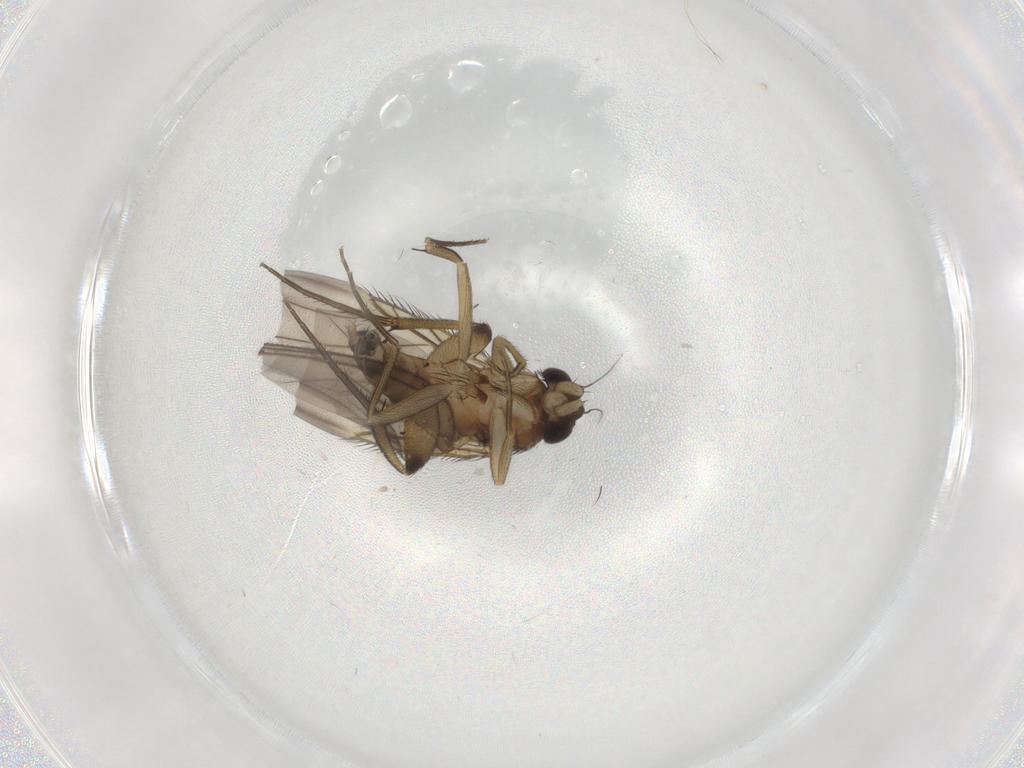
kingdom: Animalia
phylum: Arthropoda
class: Insecta
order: Diptera
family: Phoridae
